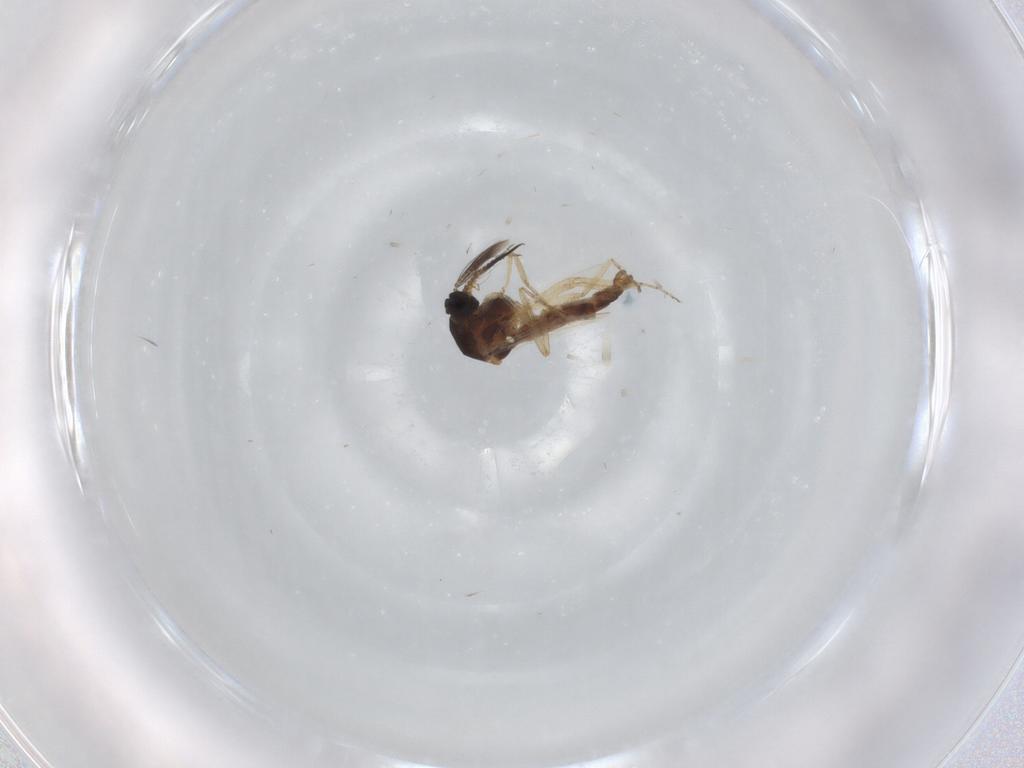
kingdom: Animalia
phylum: Arthropoda
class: Insecta
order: Diptera
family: Ceratopogonidae
